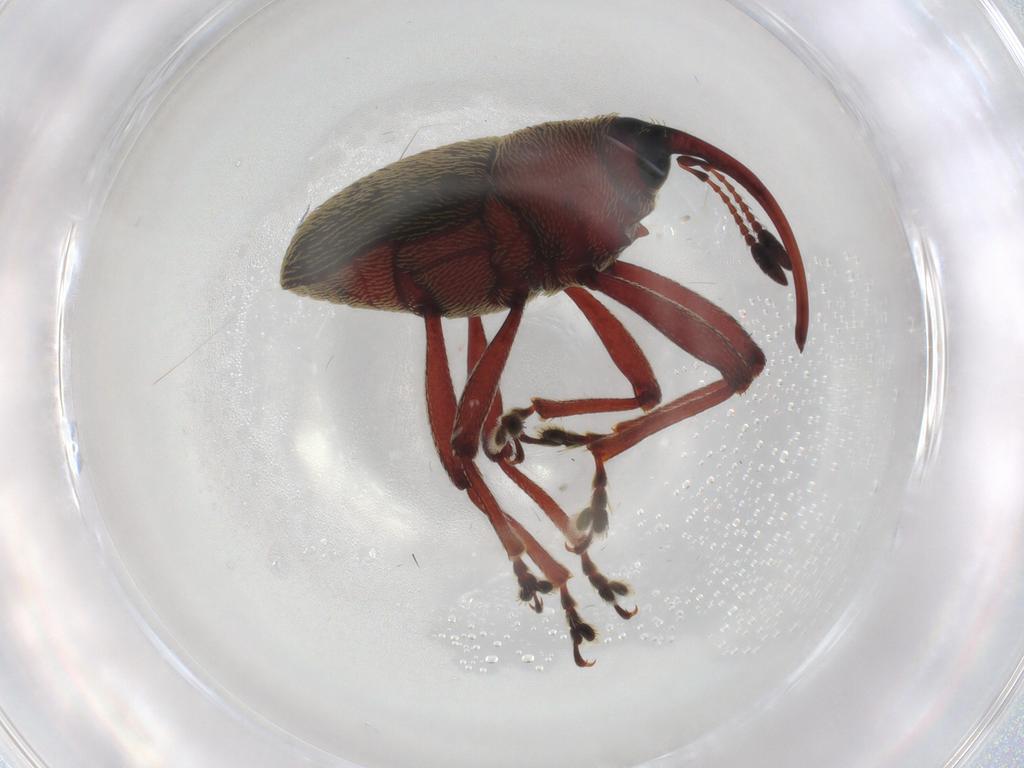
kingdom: Animalia
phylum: Arthropoda
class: Insecta
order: Coleoptera
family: Curculionidae
